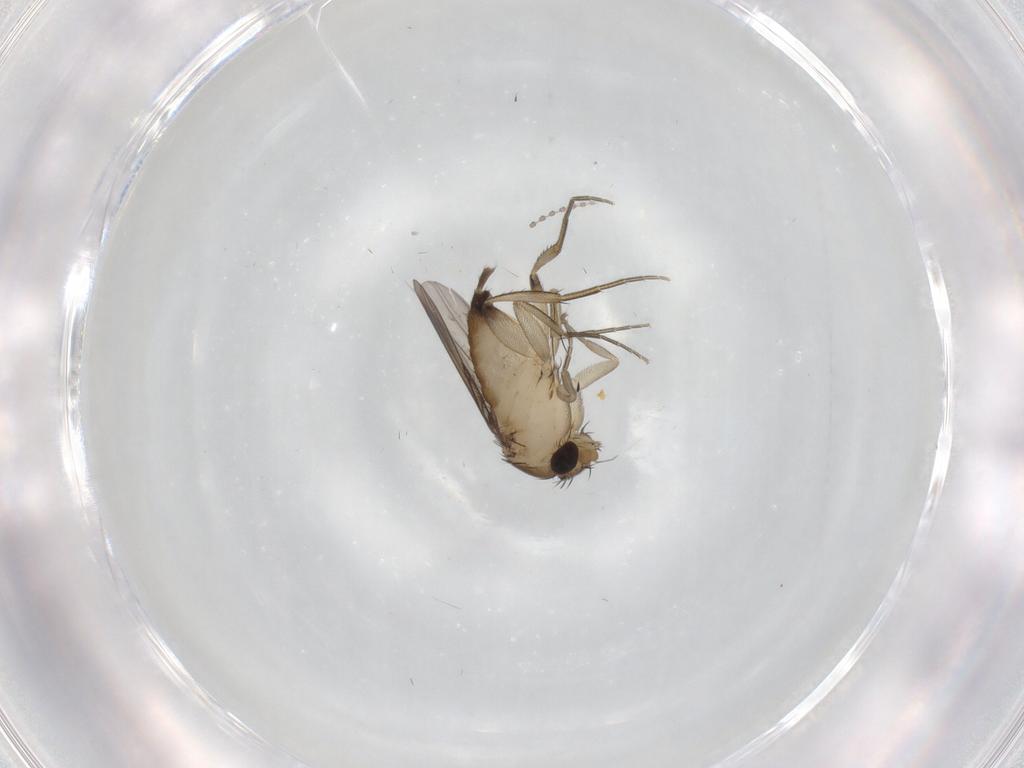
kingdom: Animalia
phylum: Arthropoda
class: Insecta
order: Diptera
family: Phoridae
